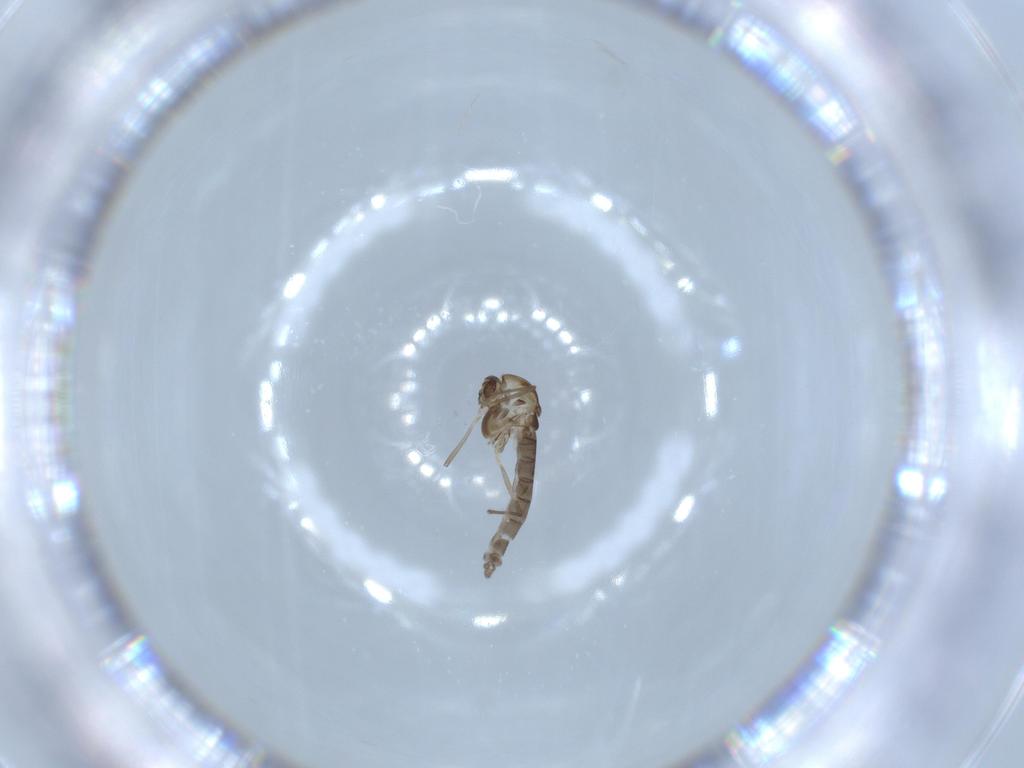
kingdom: Animalia
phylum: Arthropoda
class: Insecta
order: Diptera
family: Chironomidae
